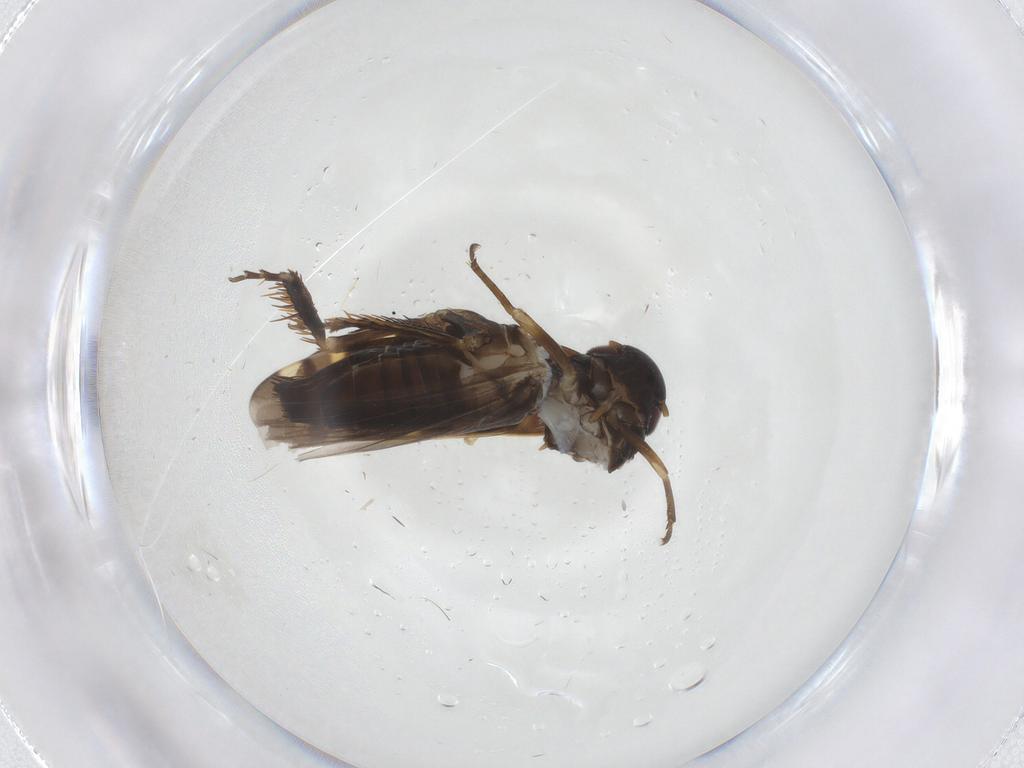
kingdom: Animalia
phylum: Arthropoda
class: Insecta
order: Hemiptera
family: Cicadellidae
